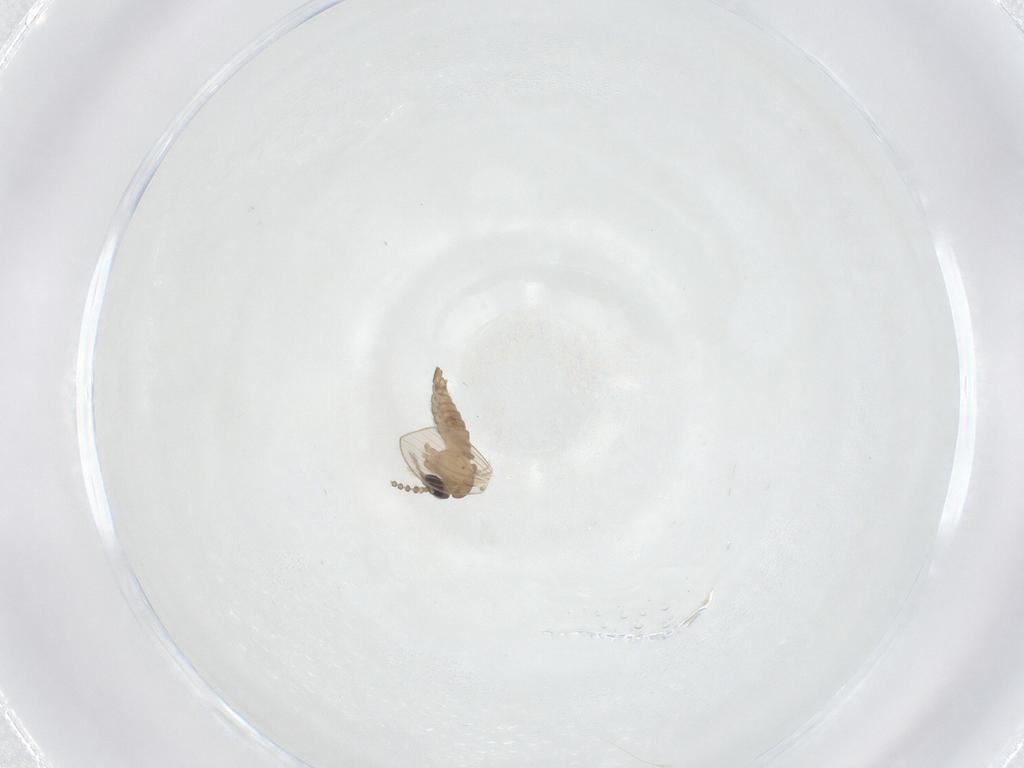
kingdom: Animalia
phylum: Arthropoda
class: Insecta
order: Diptera
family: Psychodidae
